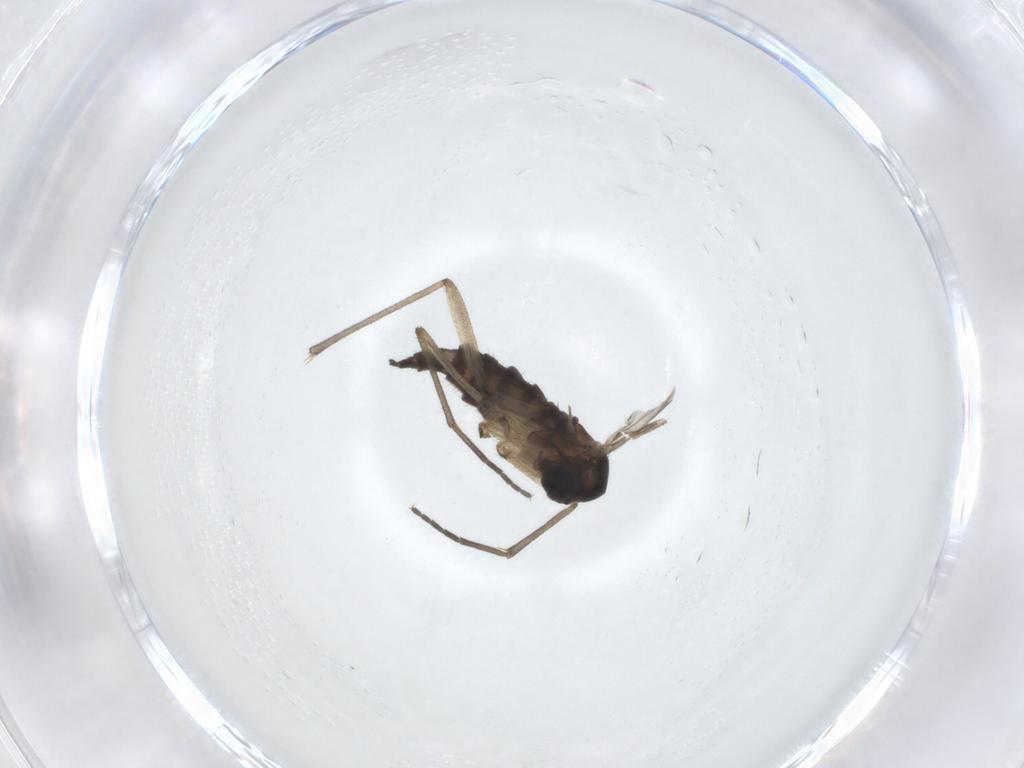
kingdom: Animalia
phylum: Arthropoda
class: Insecta
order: Diptera
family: Sciaridae
